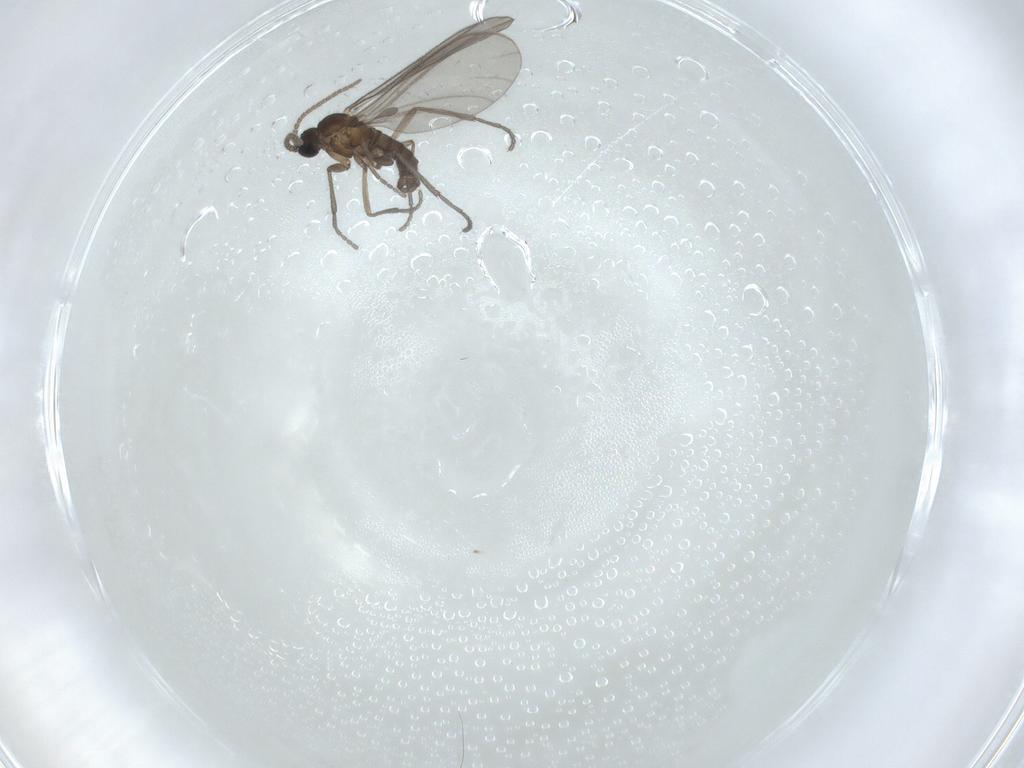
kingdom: Animalia
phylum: Arthropoda
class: Insecta
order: Diptera
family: Sciaridae
